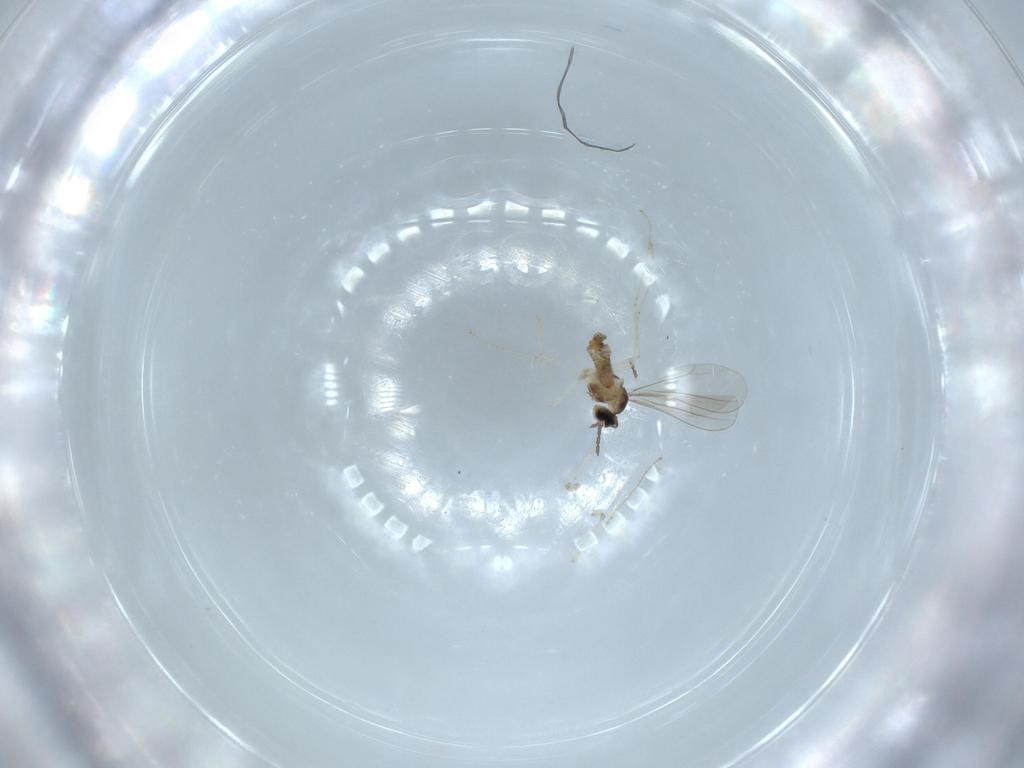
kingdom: Animalia
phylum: Arthropoda
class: Insecta
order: Diptera
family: Cecidomyiidae
